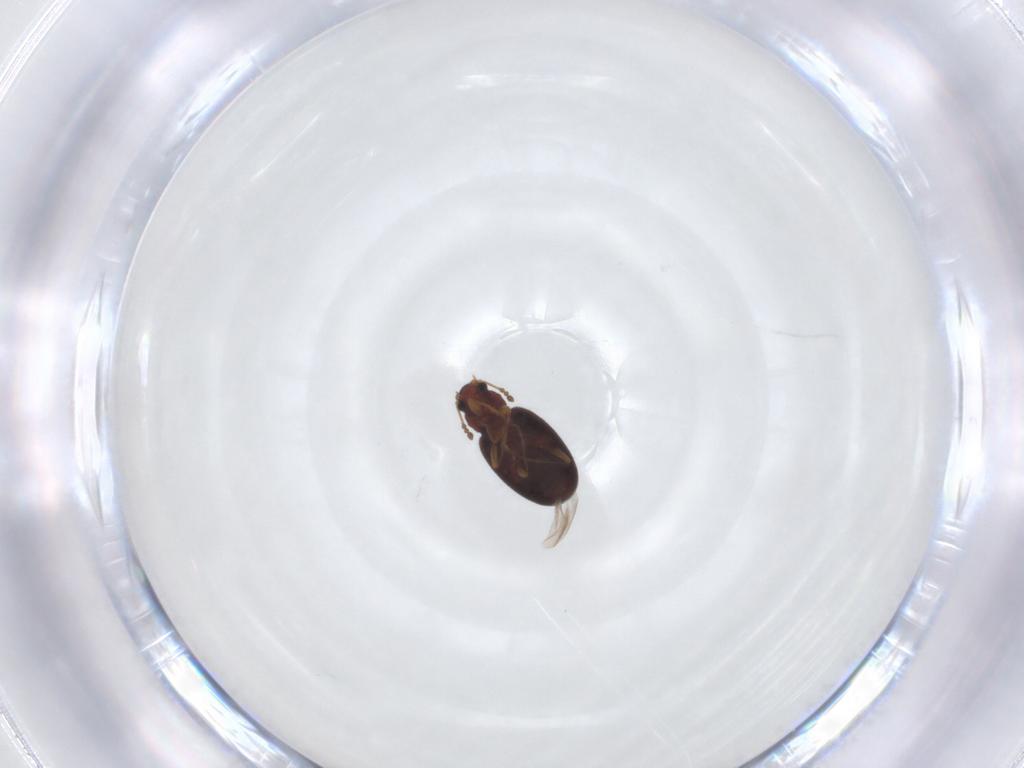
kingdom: Animalia
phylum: Arthropoda
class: Insecta
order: Coleoptera
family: Latridiidae
